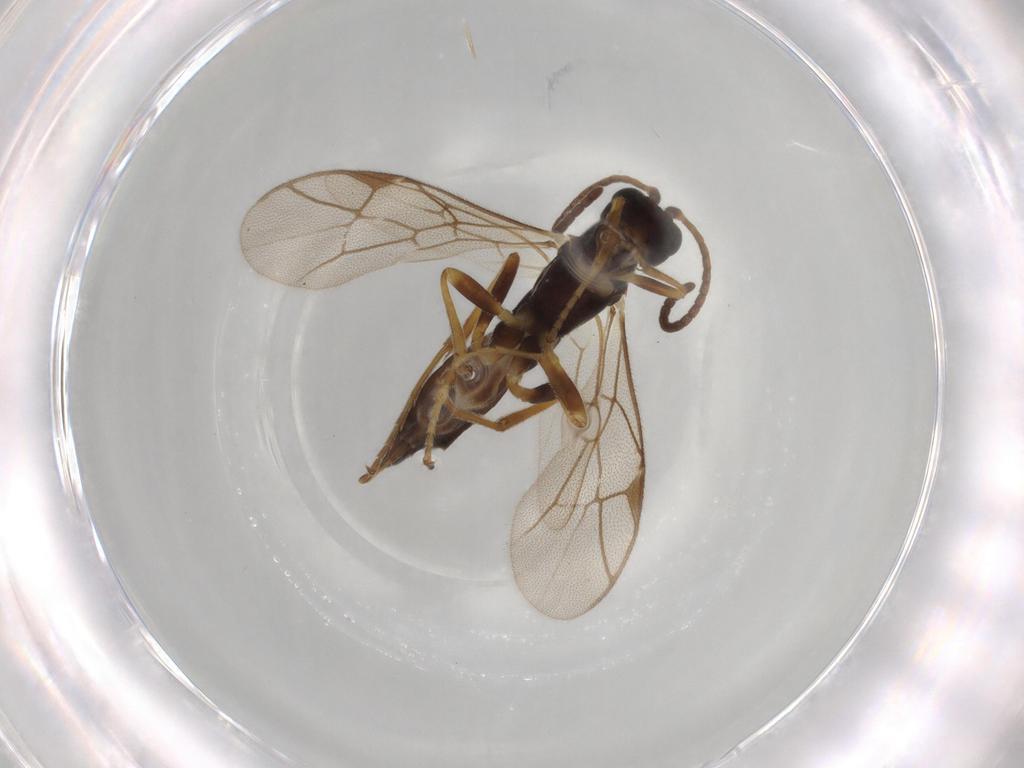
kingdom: Animalia
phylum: Arthropoda
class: Insecta
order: Hymenoptera
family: Ichneumonidae
